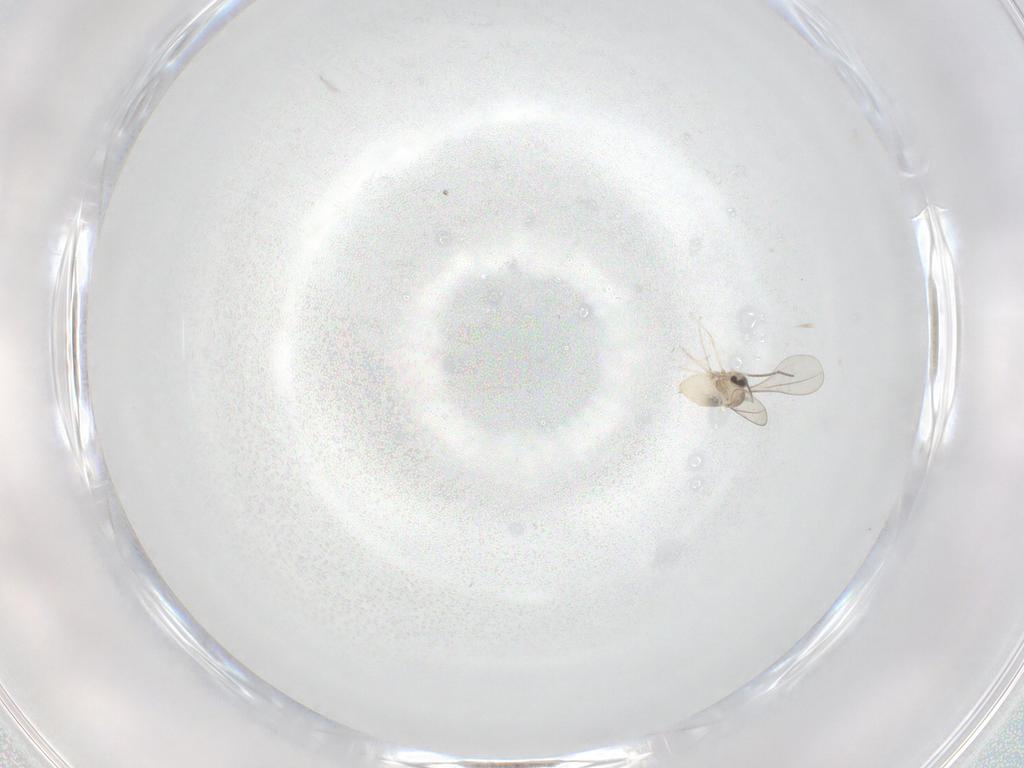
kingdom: Animalia
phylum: Arthropoda
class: Insecta
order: Diptera
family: Cecidomyiidae
